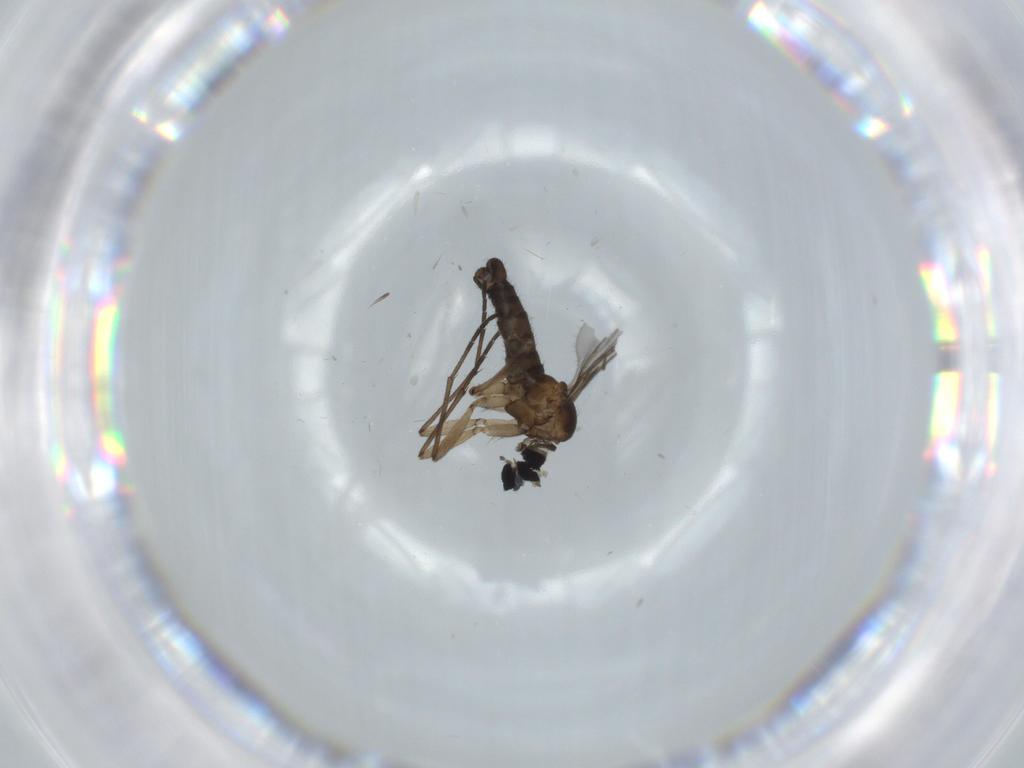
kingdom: Animalia
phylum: Arthropoda
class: Insecta
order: Diptera
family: Sciaridae
